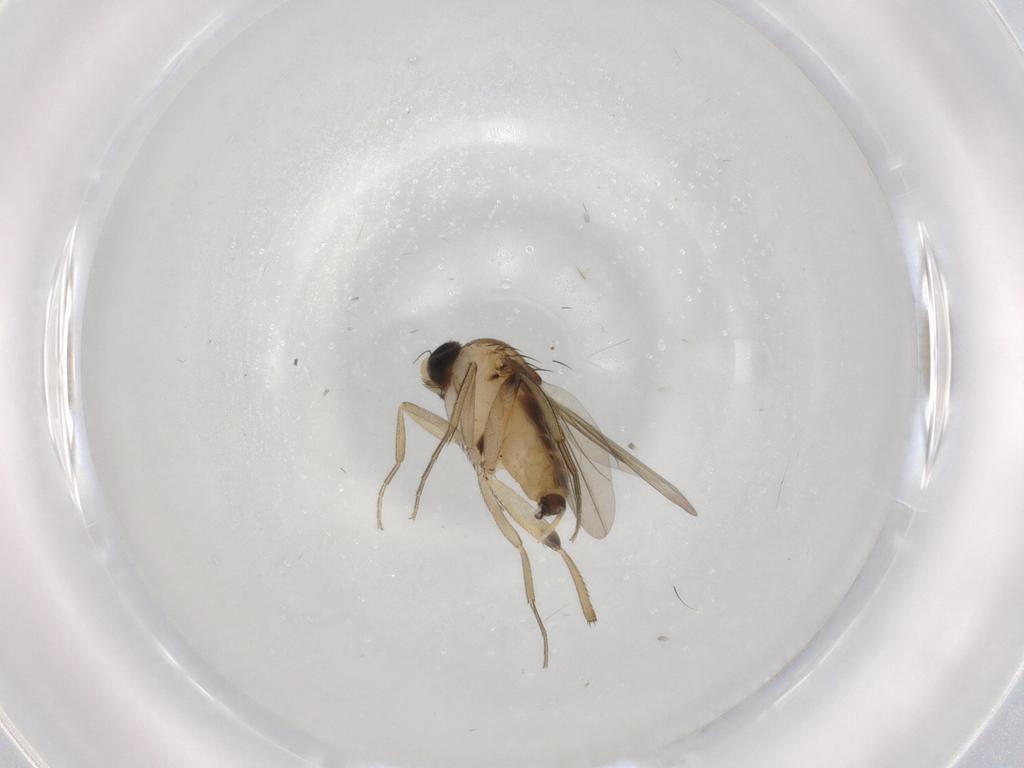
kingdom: Animalia
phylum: Arthropoda
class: Insecta
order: Diptera
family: Chironomidae
